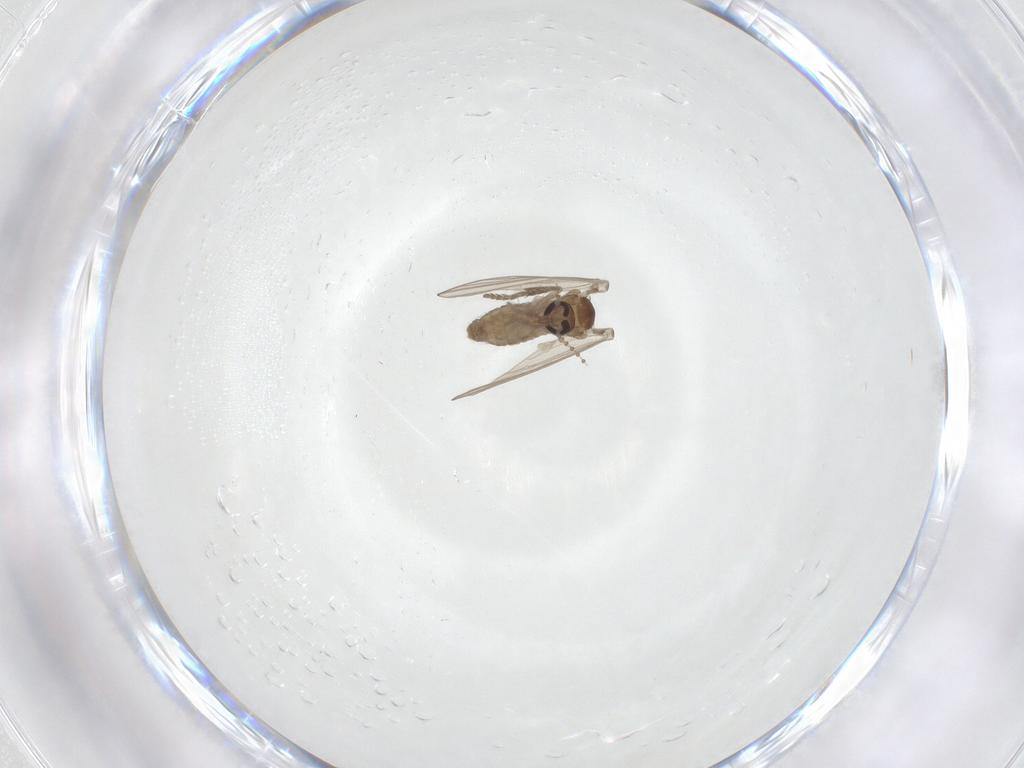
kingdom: Animalia
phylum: Arthropoda
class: Insecta
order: Diptera
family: Psychodidae
